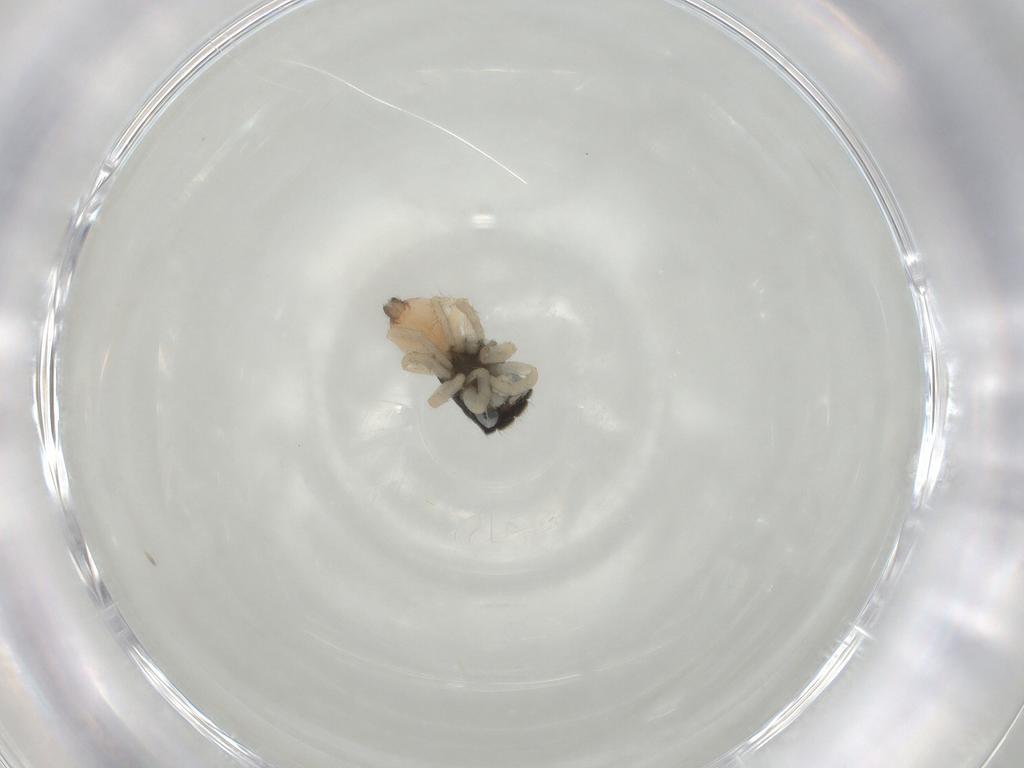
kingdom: Animalia
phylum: Arthropoda
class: Arachnida
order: Araneae
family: Salticidae
